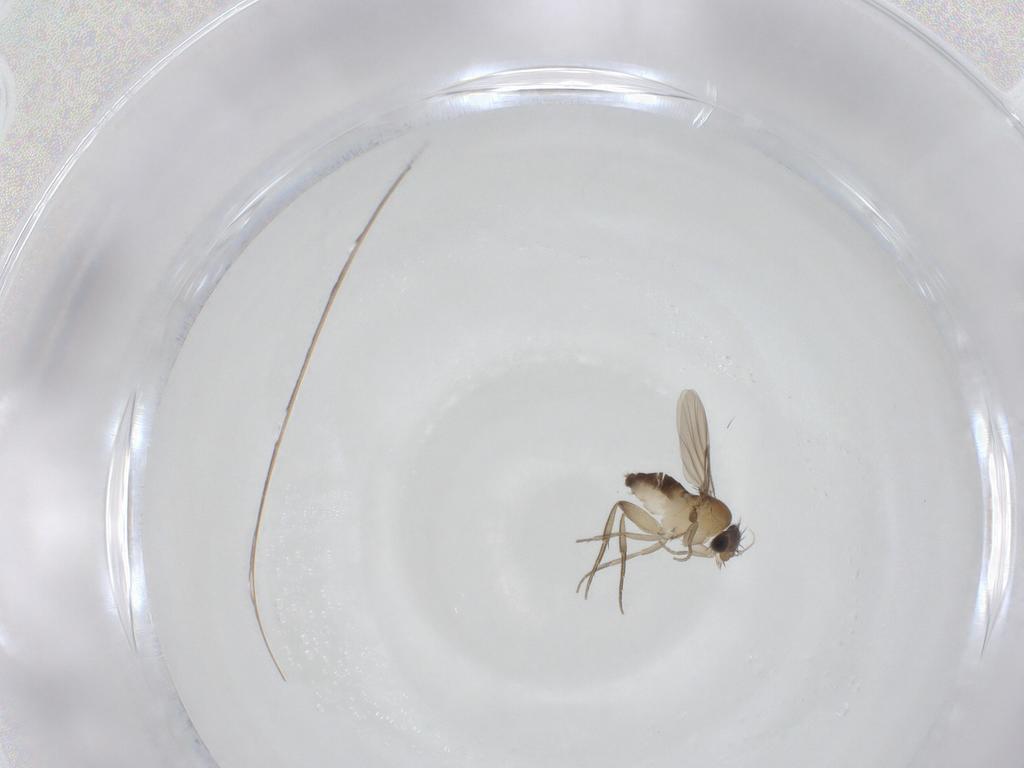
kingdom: Animalia
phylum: Arthropoda
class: Insecta
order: Diptera
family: Phoridae
